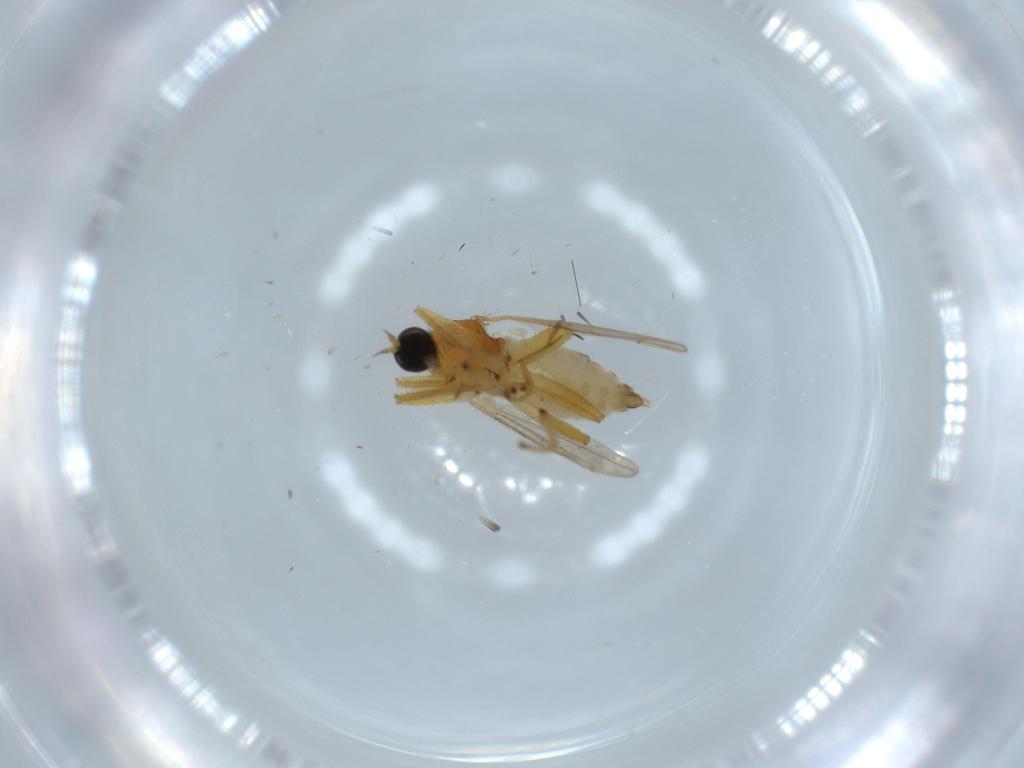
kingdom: Animalia
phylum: Arthropoda
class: Insecta
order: Diptera
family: Hybotidae
